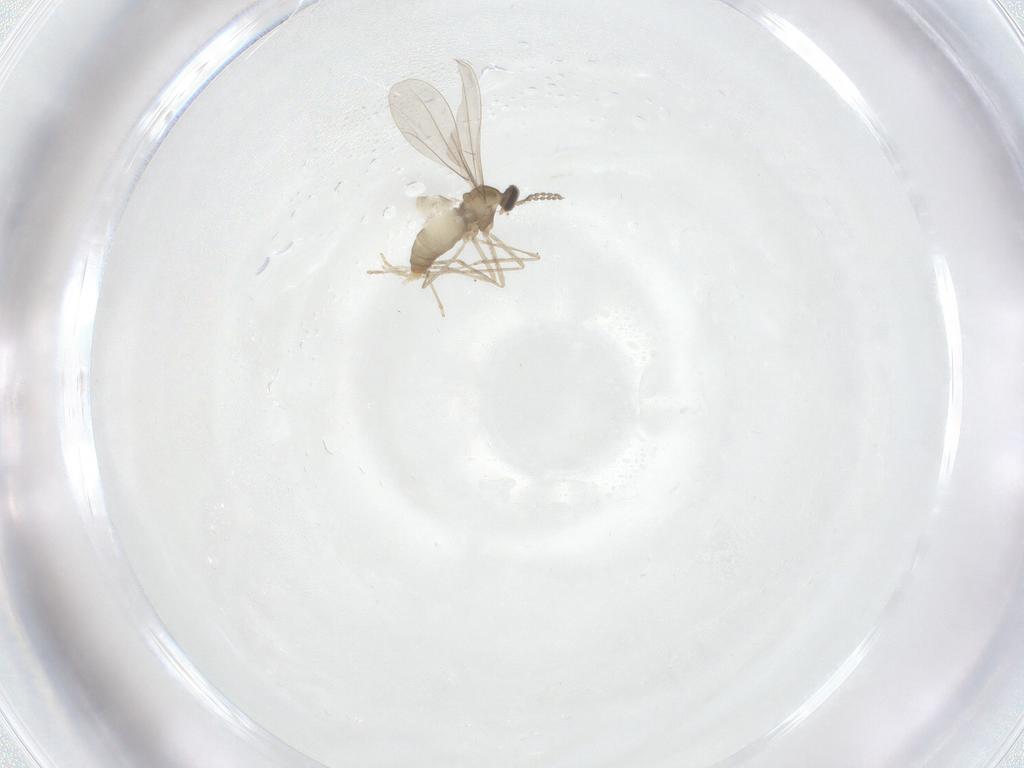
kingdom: Animalia
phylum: Arthropoda
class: Insecta
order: Diptera
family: Cecidomyiidae
